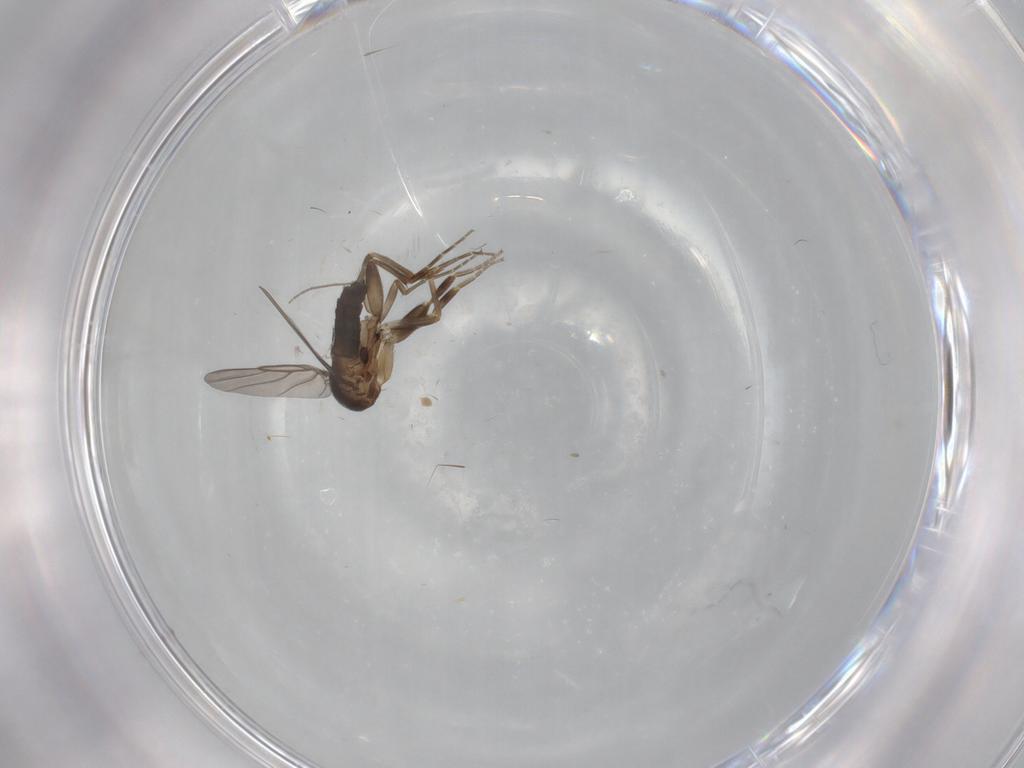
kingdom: Animalia
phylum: Arthropoda
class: Insecta
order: Diptera
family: Chironomidae
